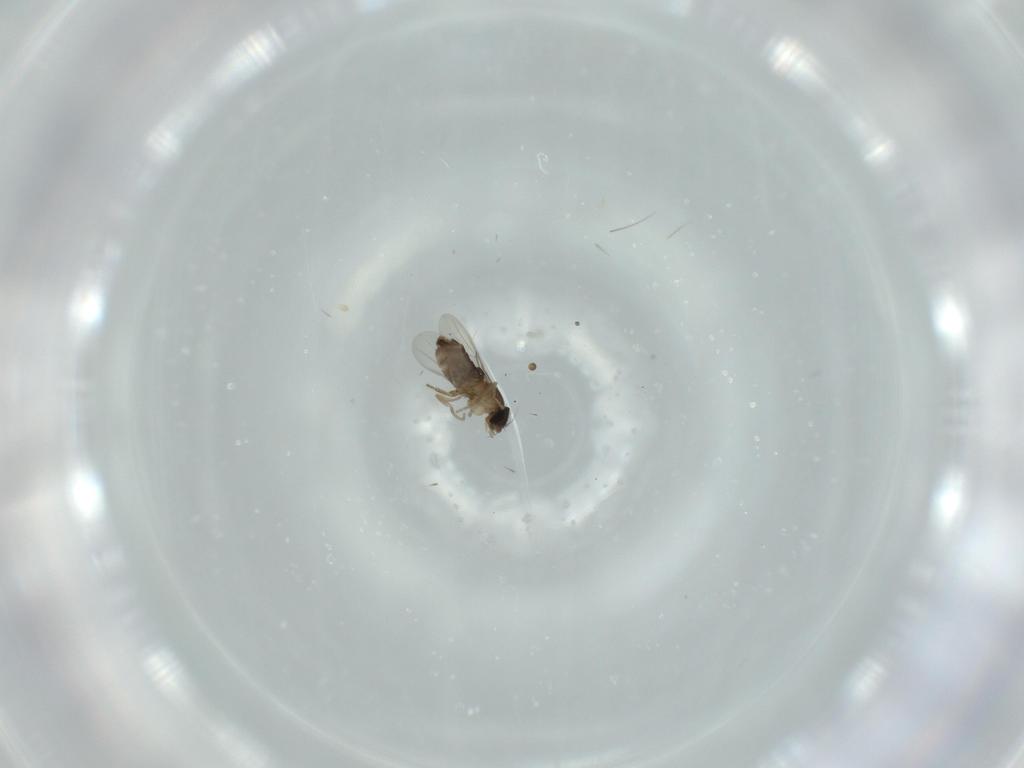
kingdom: Animalia
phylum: Arthropoda
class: Insecta
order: Diptera
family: Phoridae
